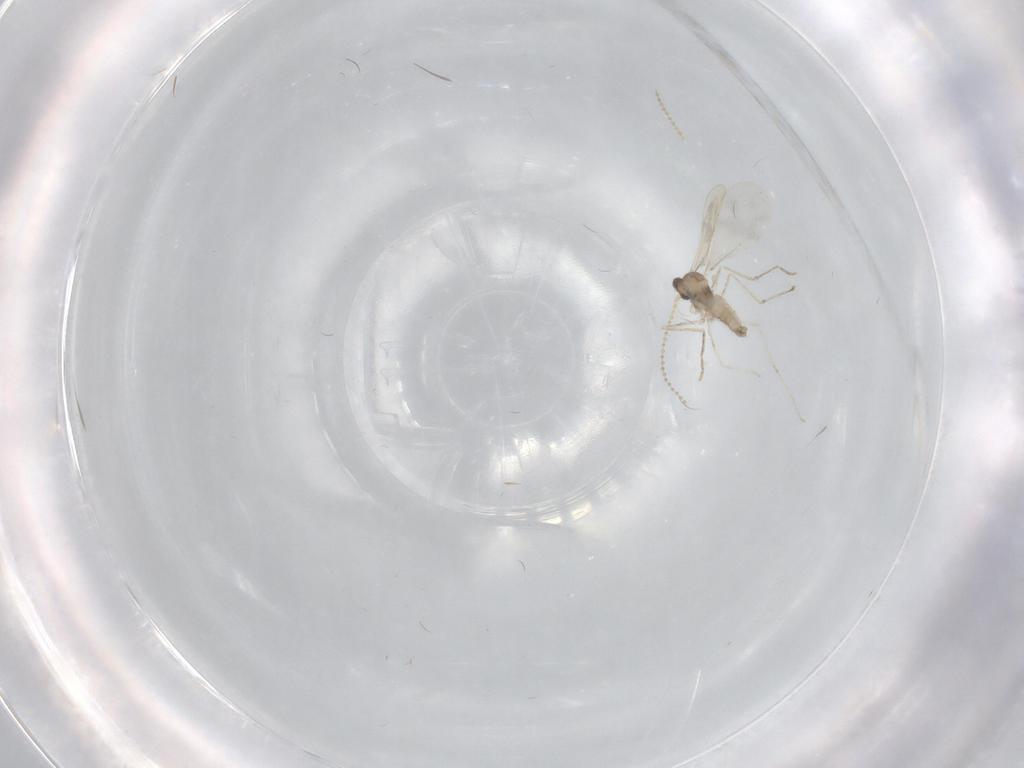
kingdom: Animalia
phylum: Arthropoda
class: Insecta
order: Diptera
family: Cecidomyiidae
